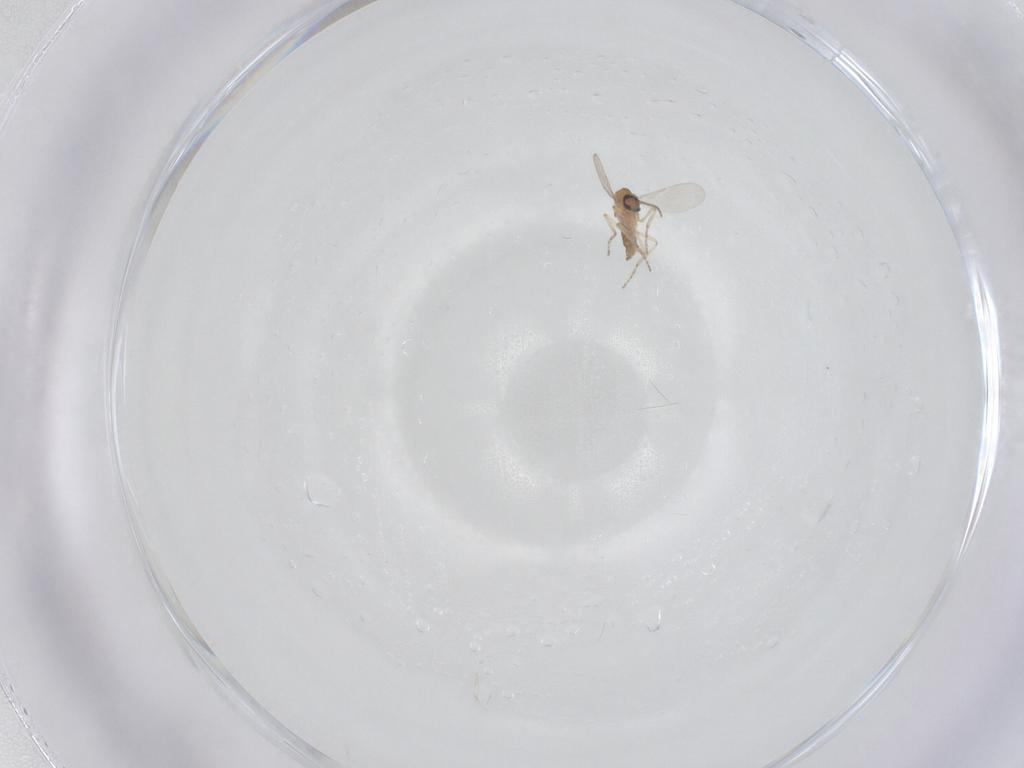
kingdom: Animalia
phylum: Arthropoda
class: Insecta
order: Diptera
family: Ceratopogonidae
